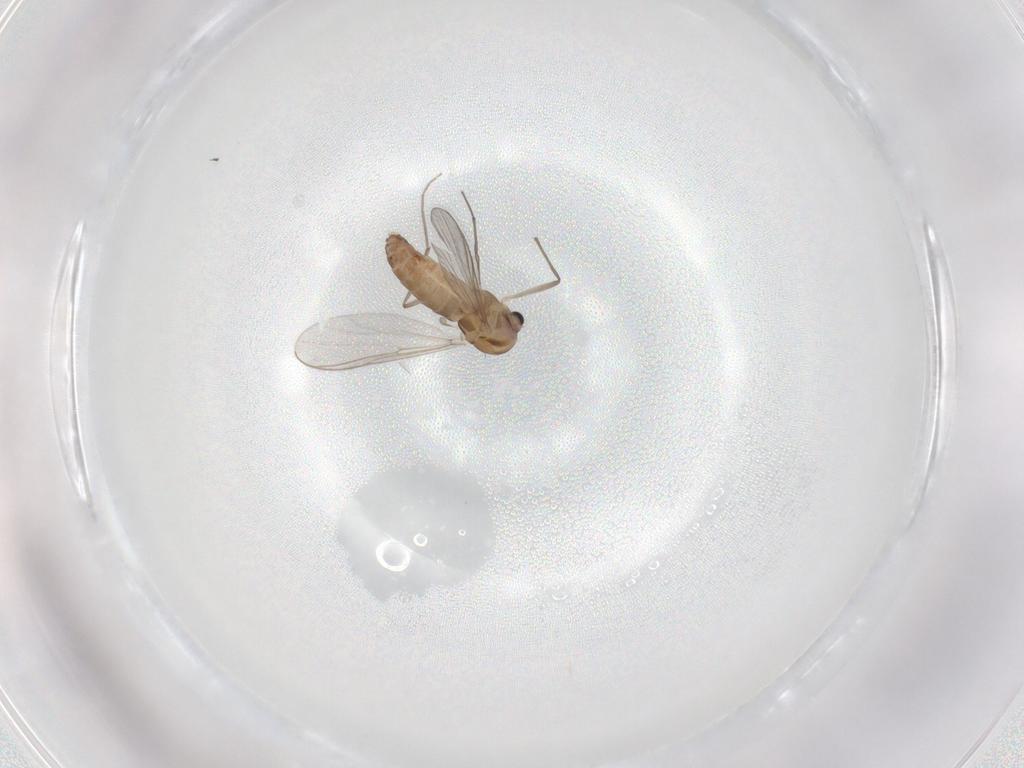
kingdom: Animalia
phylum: Arthropoda
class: Insecta
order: Diptera
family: Chironomidae
